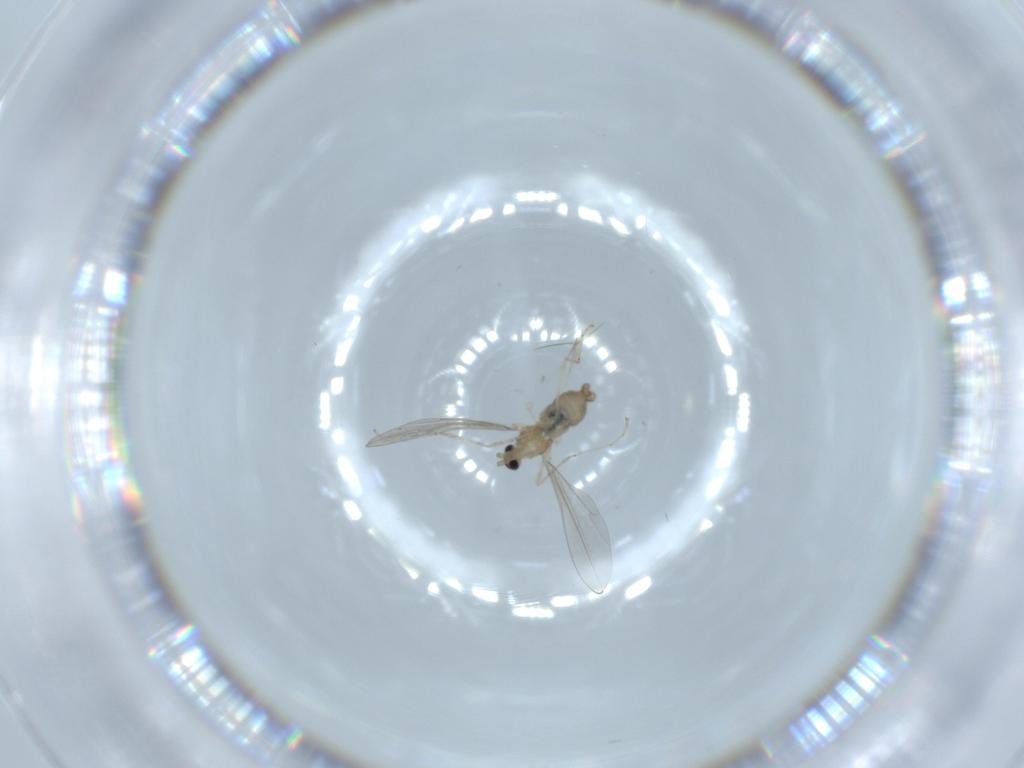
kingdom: Animalia
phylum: Arthropoda
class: Insecta
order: Diptera
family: Cecidomyiidae
